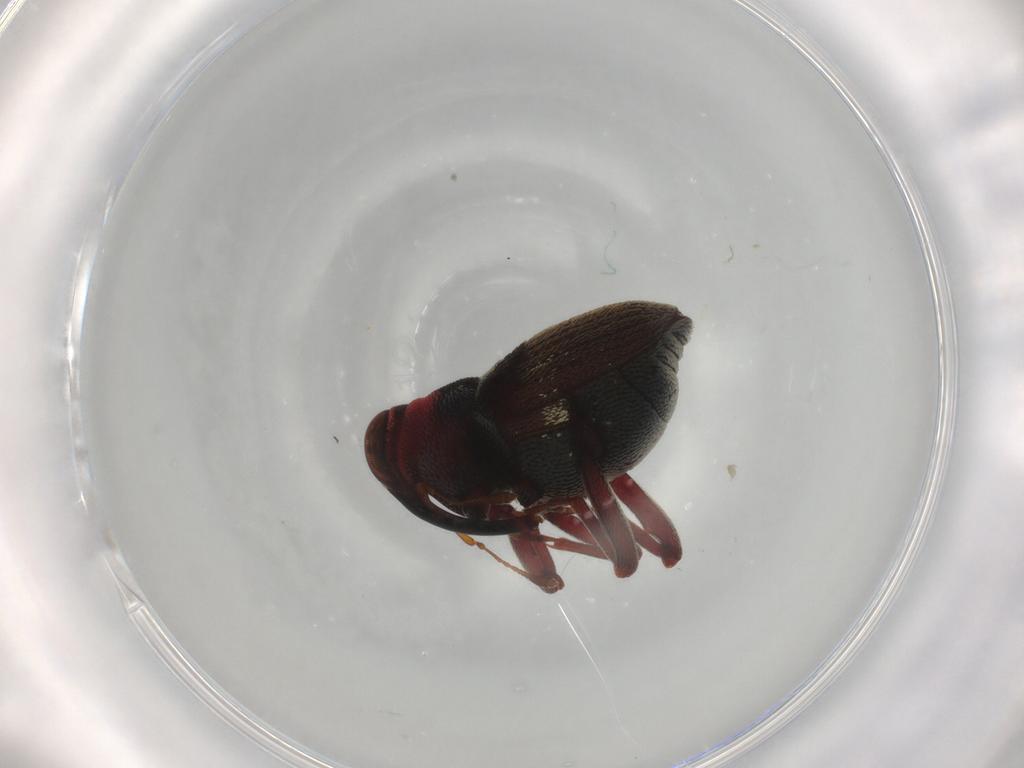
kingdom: Animalia
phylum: Arthropoda
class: Insecta
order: Coleoptera
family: Curculionidae
